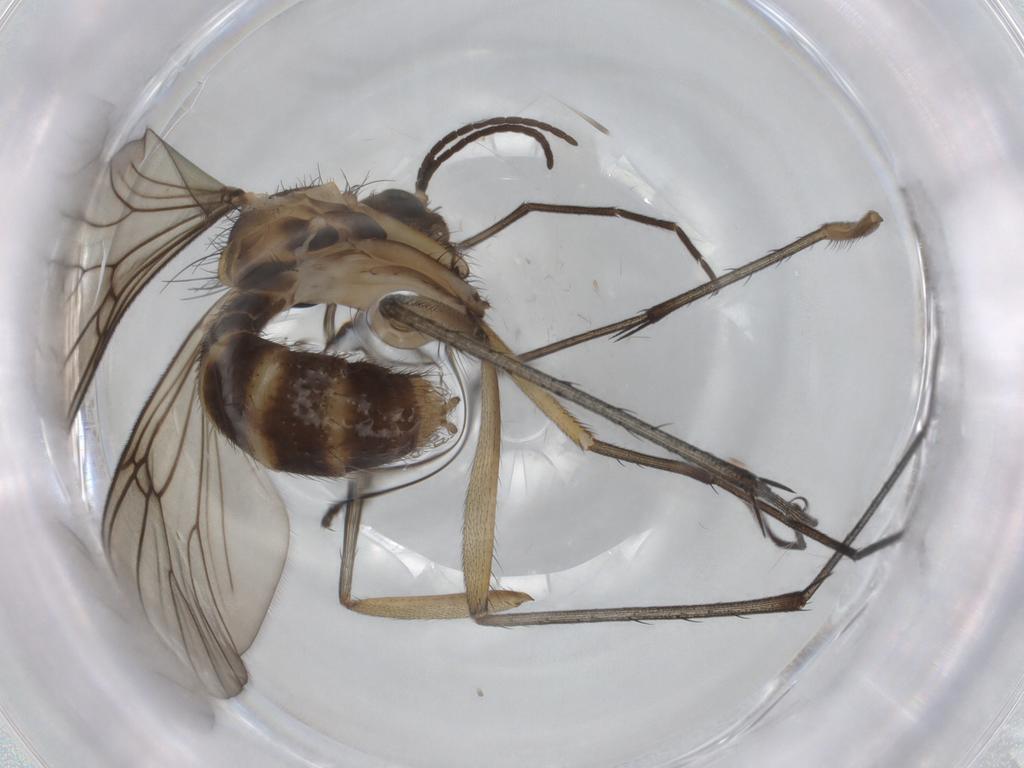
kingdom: Animalia
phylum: Arthropoda
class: Insecta
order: Diptera
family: Mycetophilidae
